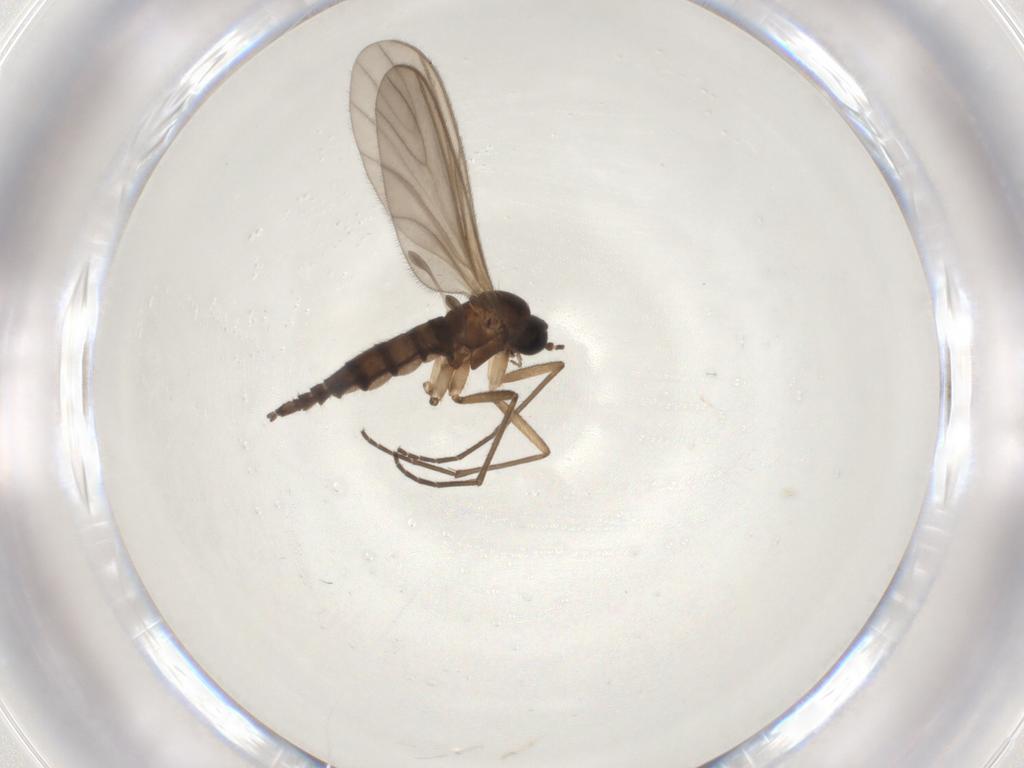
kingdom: Animalia
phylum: Arthropoda
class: Insecta
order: Diptera
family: Sciaridae
